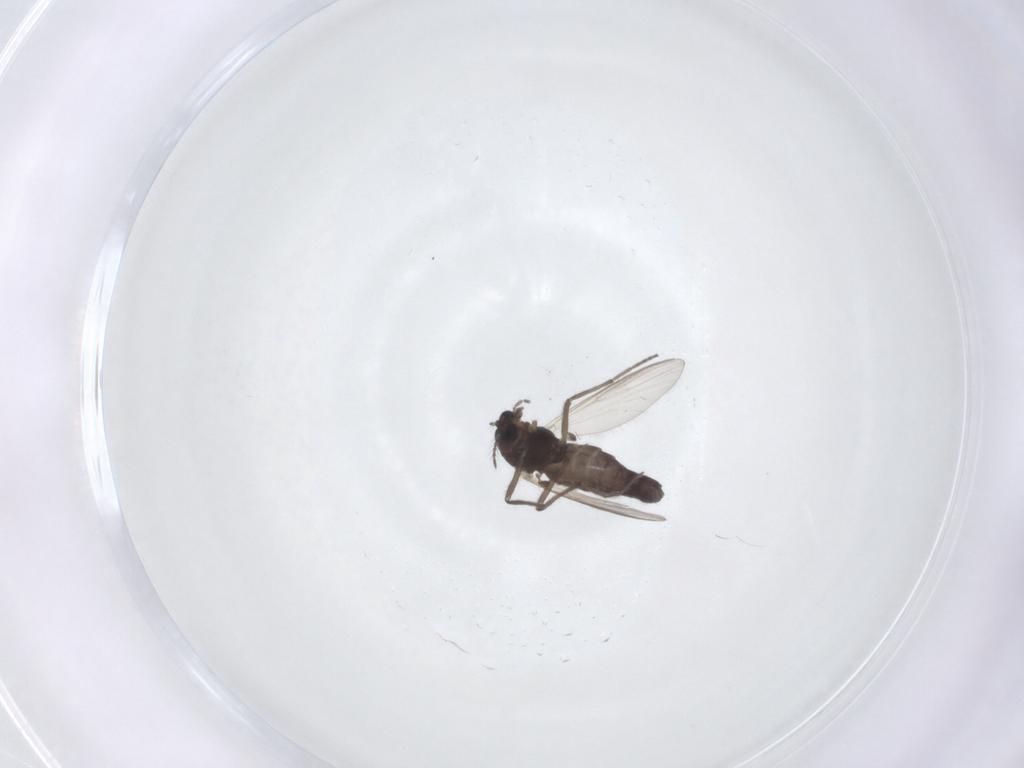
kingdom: Animalia
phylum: Arthropoda
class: Insecta
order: Diptera
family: Chironomidae
